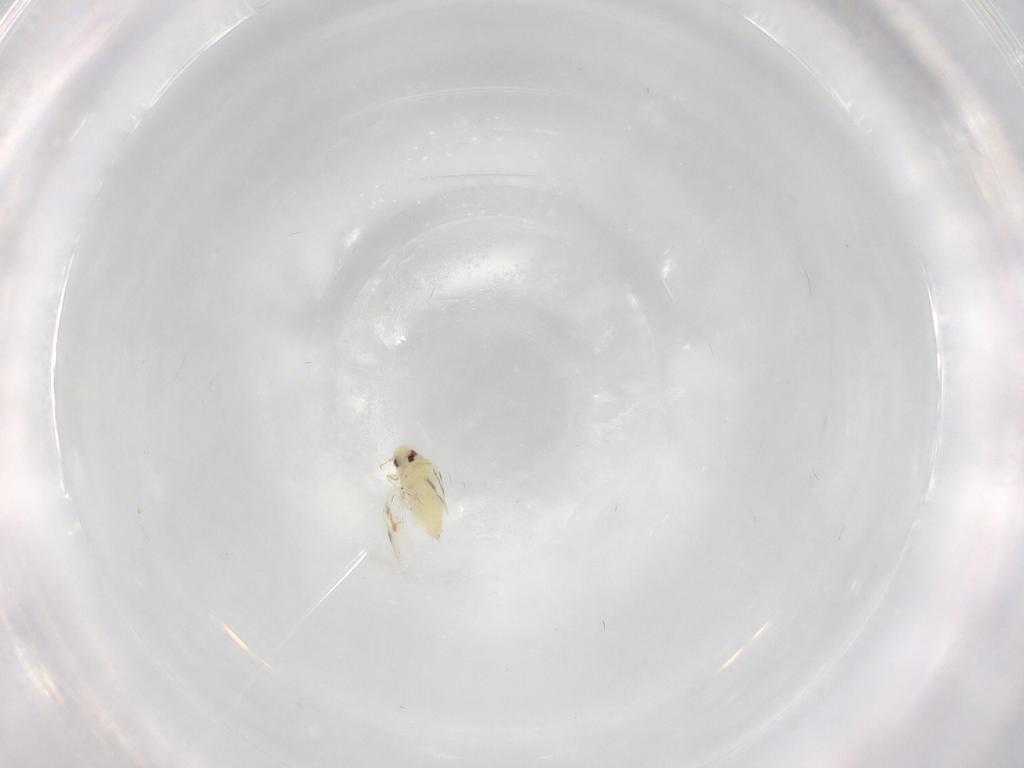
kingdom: Animalia
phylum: Arthropoda
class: Insecta
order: Hemiptera
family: Aleyrodidae
